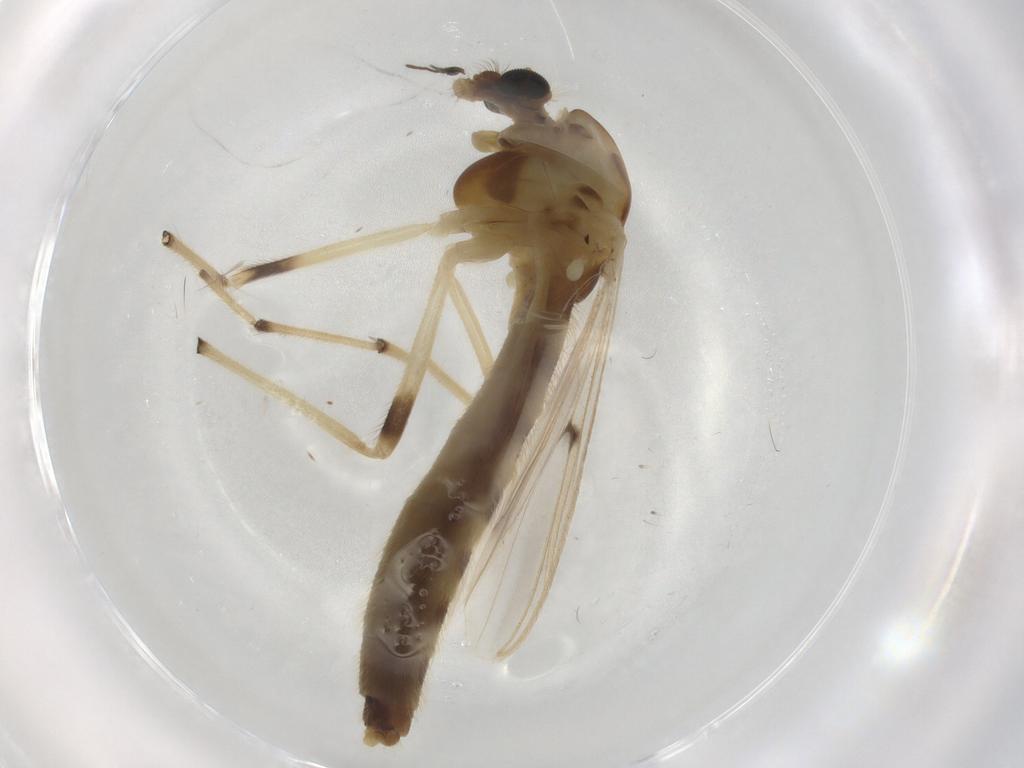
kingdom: Animalia
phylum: Arthropoda
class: Insecta
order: Diptera
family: Chironomidae
